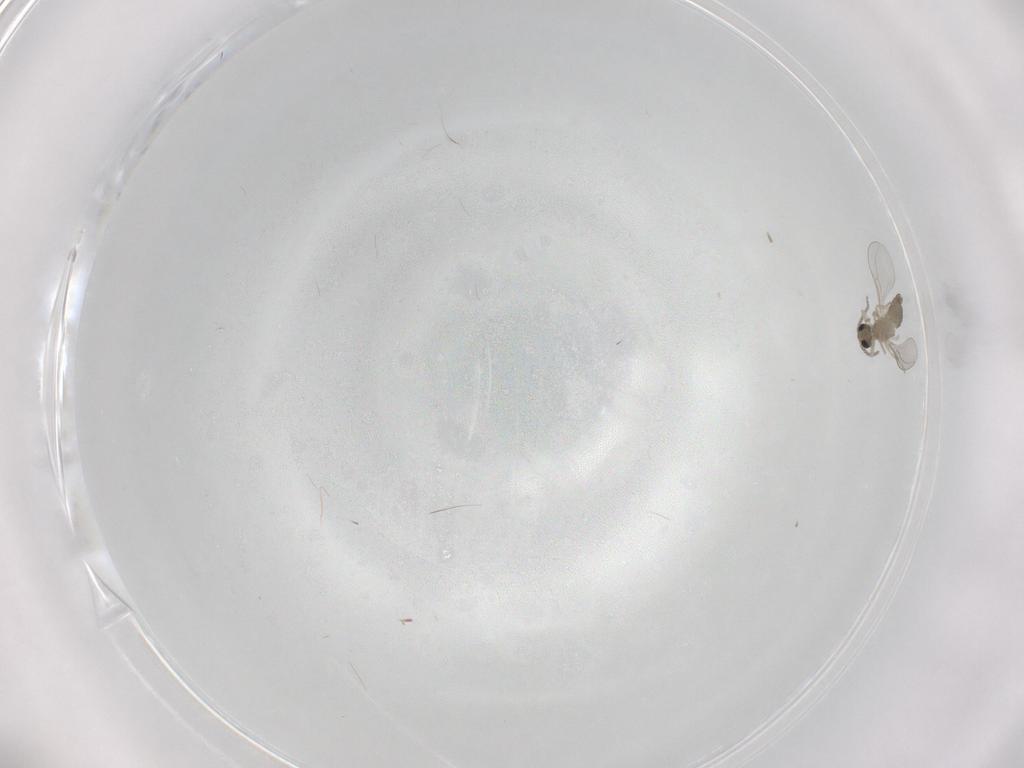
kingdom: Animalia
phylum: Arthropoda
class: Insecta
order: Diptera
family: Cecidomyiidae
